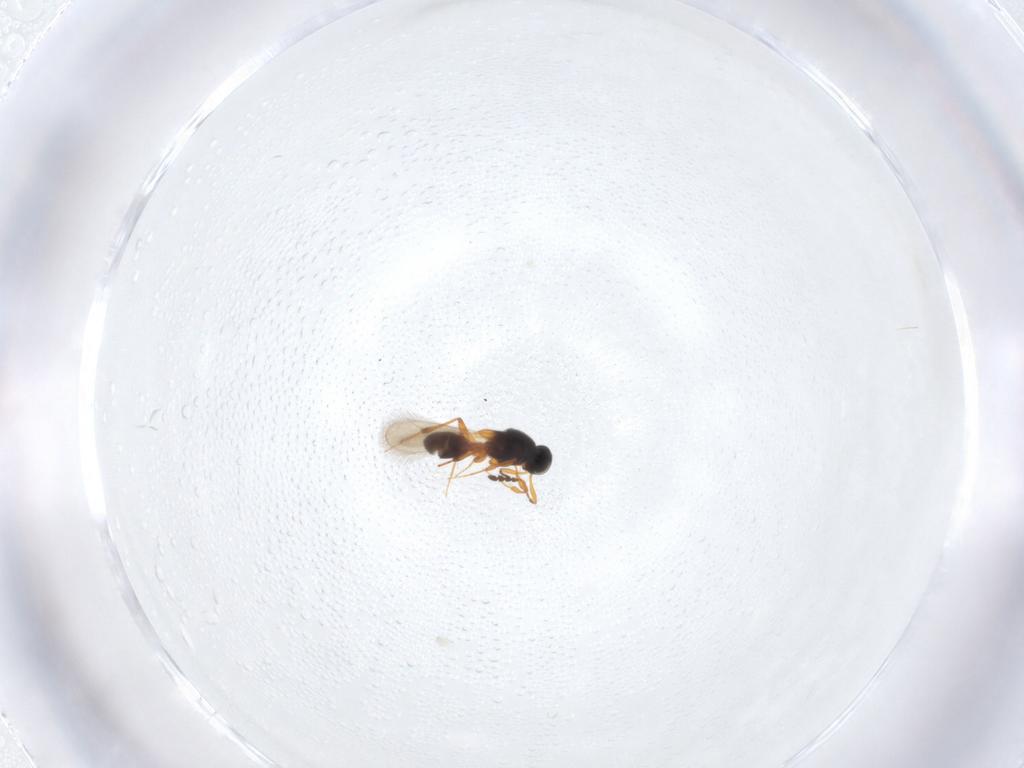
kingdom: Animalia
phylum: Arthropoda
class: Insecta
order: Hymenoptera
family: Platygastridae
